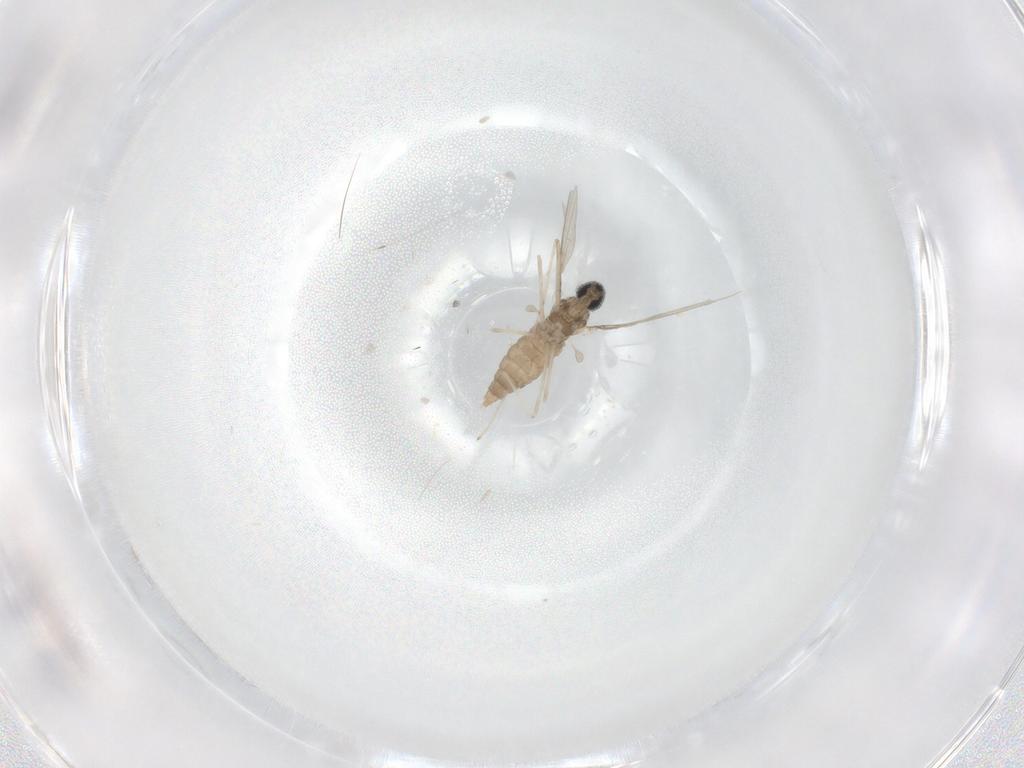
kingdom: Animalia
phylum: Arthropoda
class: Insecta
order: Diptera
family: Cecidomyiidae
